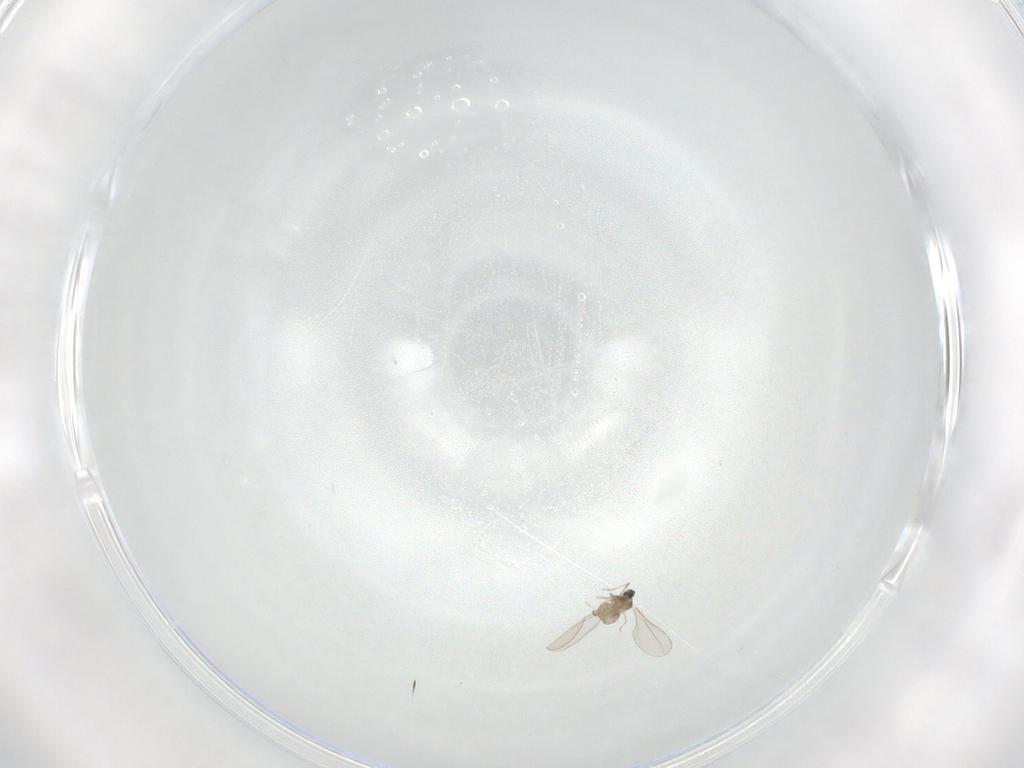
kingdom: Animalia
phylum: Arthropoda
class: Insecta
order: Diptera
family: Cecidomyiidae
